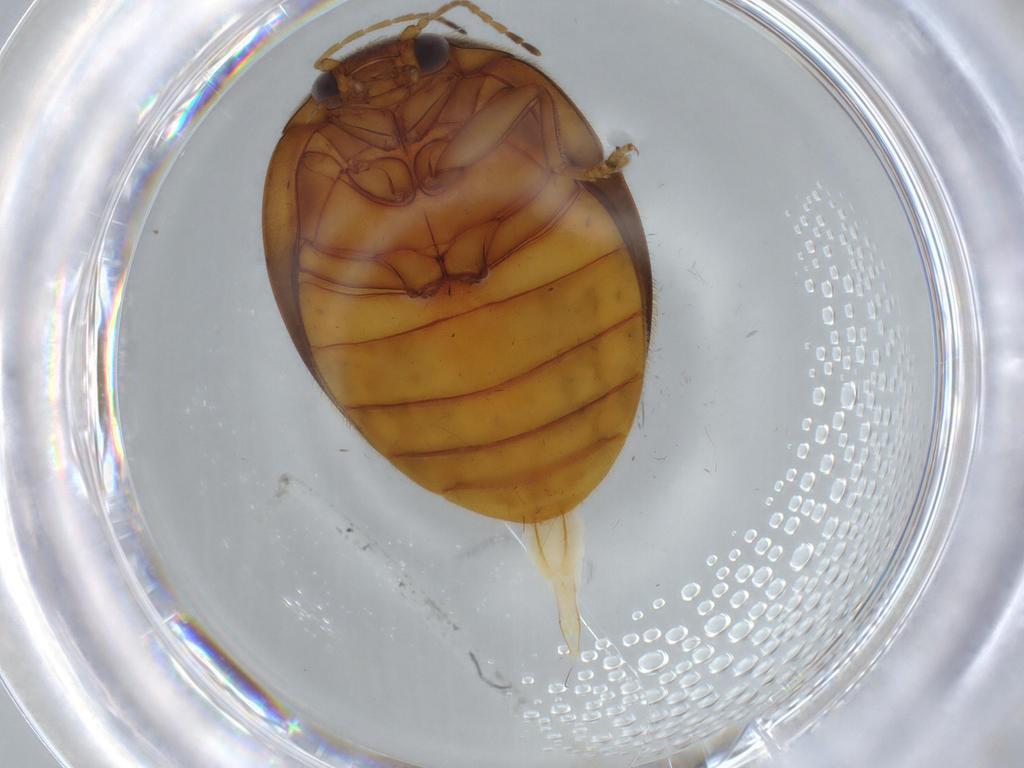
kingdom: Animalia
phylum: Arthropoda
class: Insecta
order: Coleoptera
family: Scirtidae
